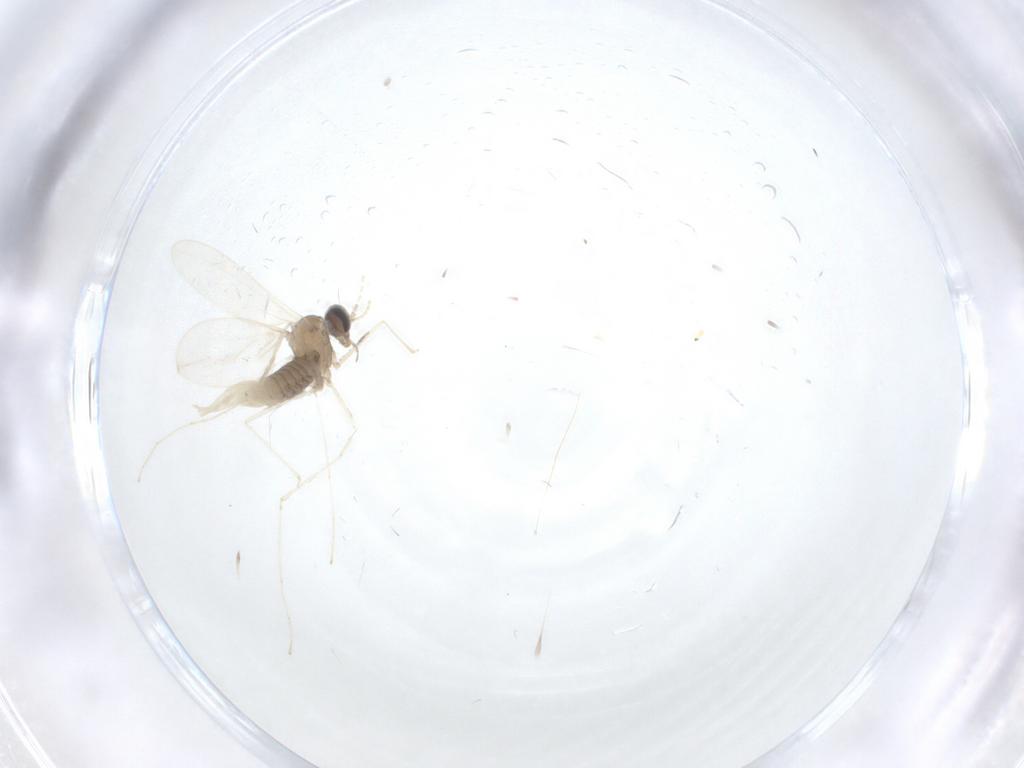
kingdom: Animalia
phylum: Arthropoda
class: Insecta
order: Diptera
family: Cecidomyiidae
